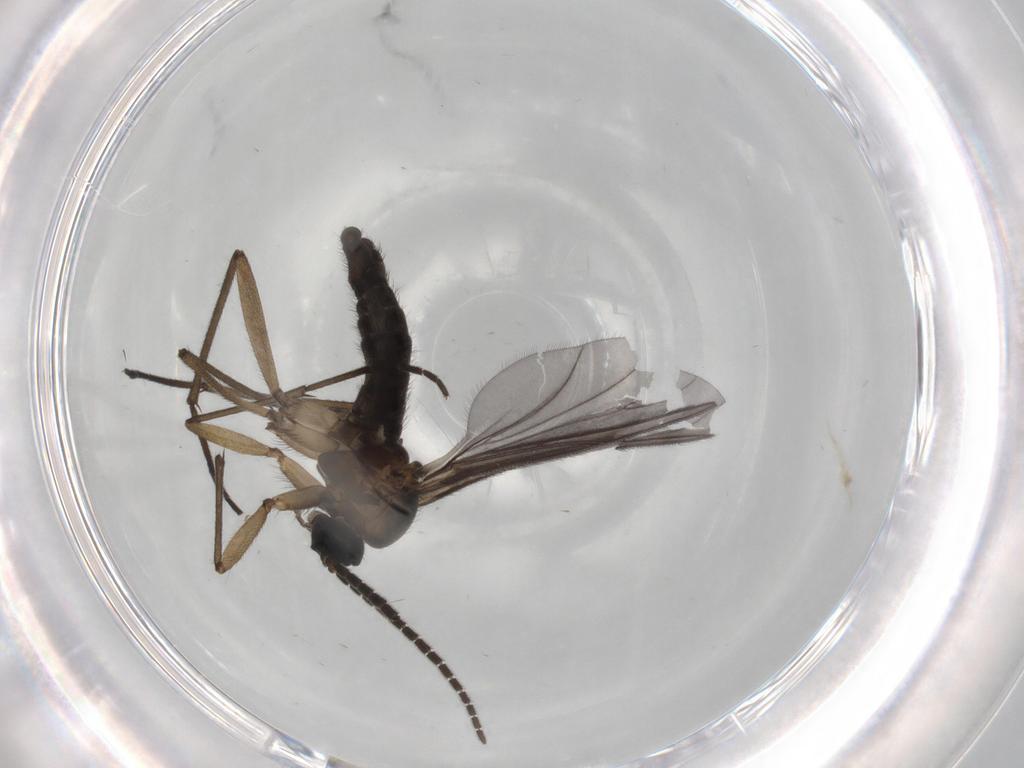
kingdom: Animalia
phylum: Arthropoda
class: Insecta
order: Diptera
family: Sciaridae
